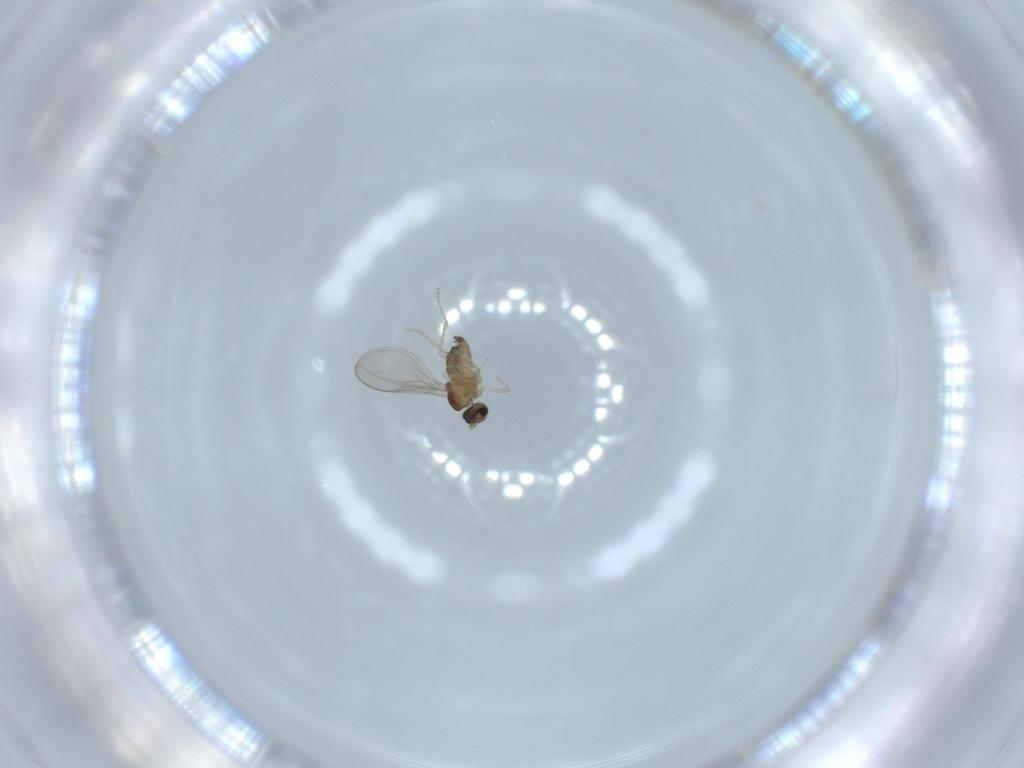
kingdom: Animalia
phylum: Arthropoda
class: Insecta
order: Diptera
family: Cecidomyiidae
